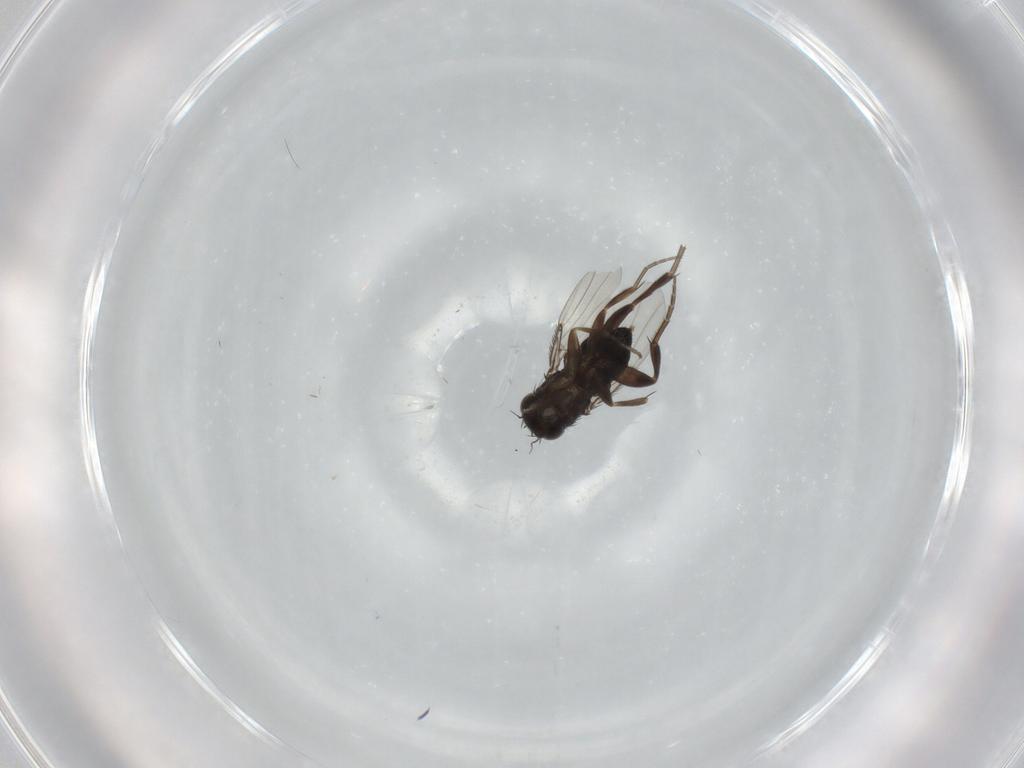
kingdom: Animalia
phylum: Arthropoda
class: Insecta
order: Diptera
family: Phoridae
